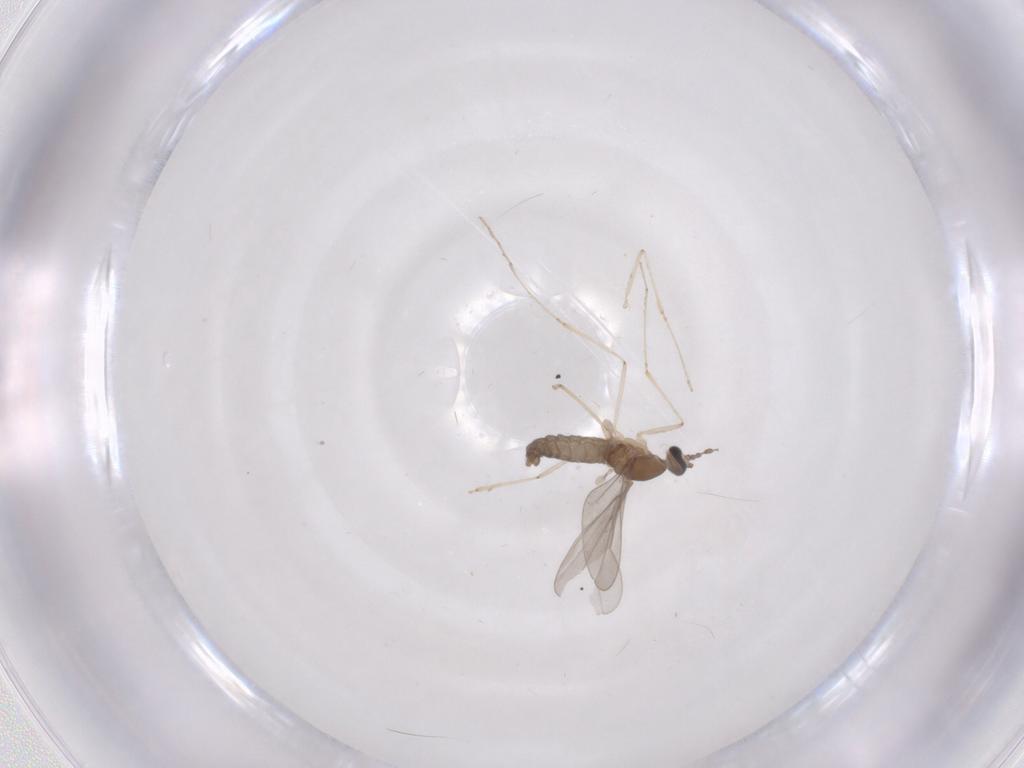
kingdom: Animalia
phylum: Arthropoda
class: Insecta
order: Diptera
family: Cecidomyiidae
